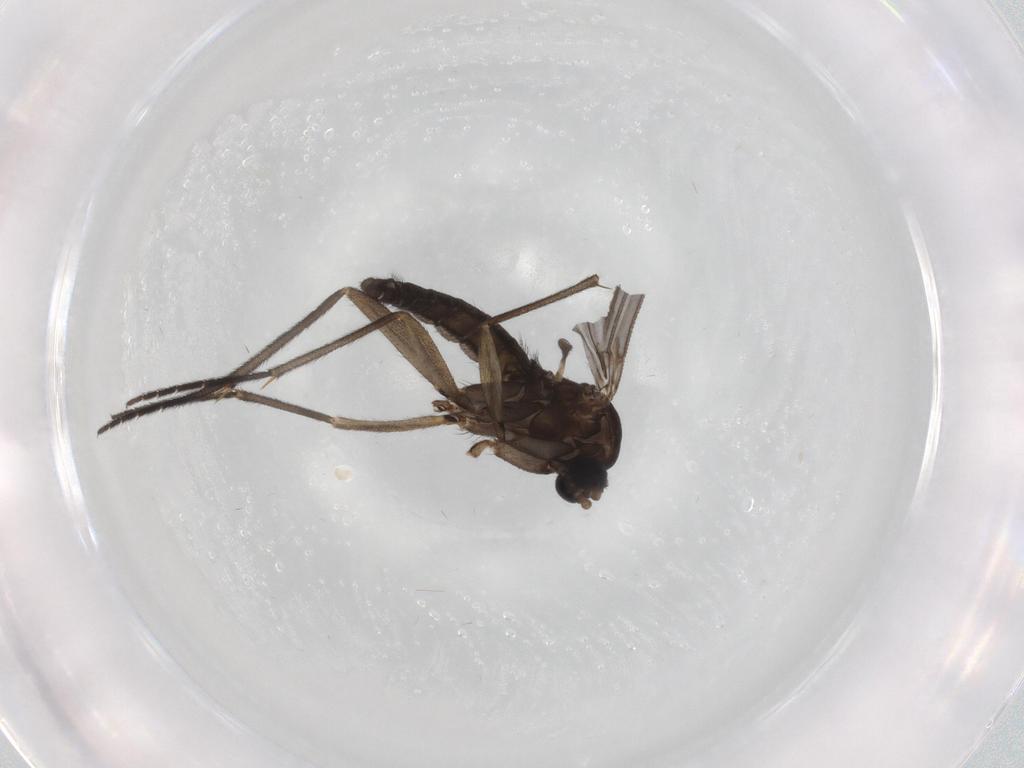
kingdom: Animalia
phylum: Arthropoda
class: Insecta
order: Diptera
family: Sciaridae
